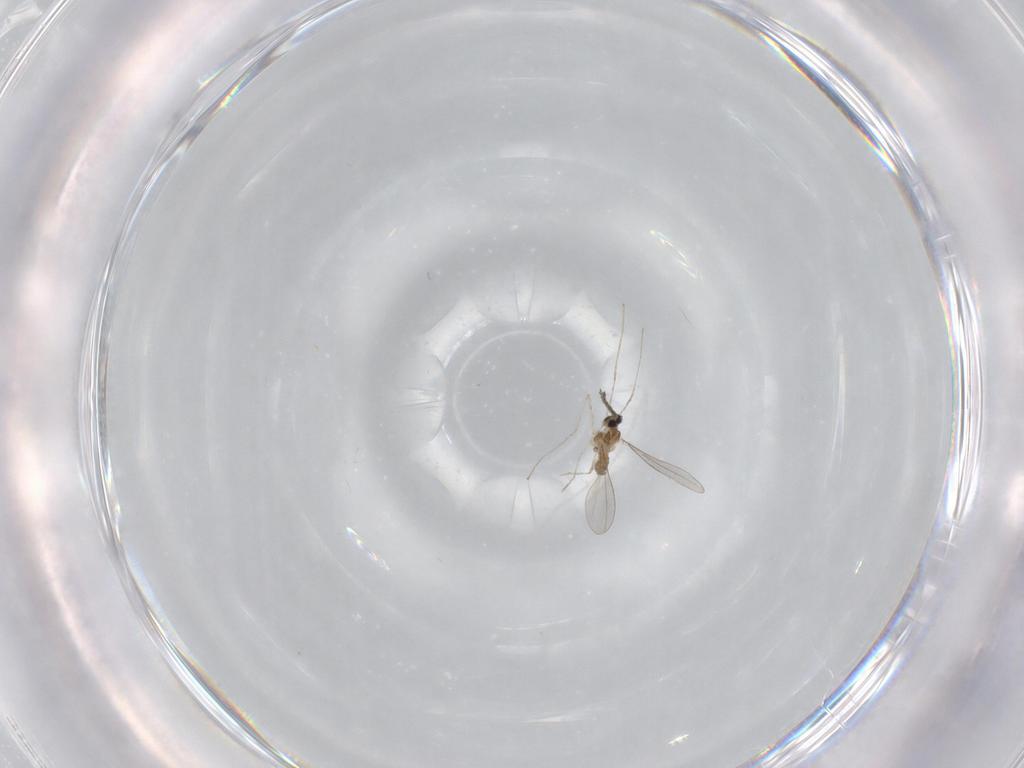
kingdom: Animalia
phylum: Arthropoda
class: Insecta
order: Diptera
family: Cecidomyiidae
